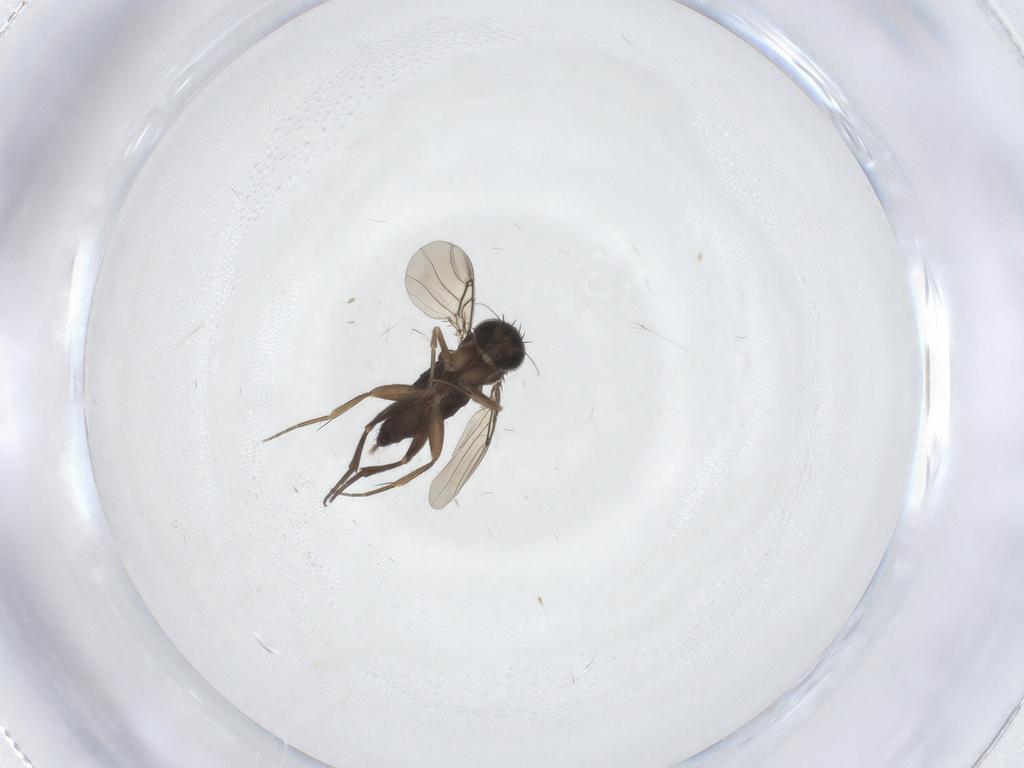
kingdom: Animalia
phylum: Arthropoda
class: Insecta
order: Diptera
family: Phoridae
